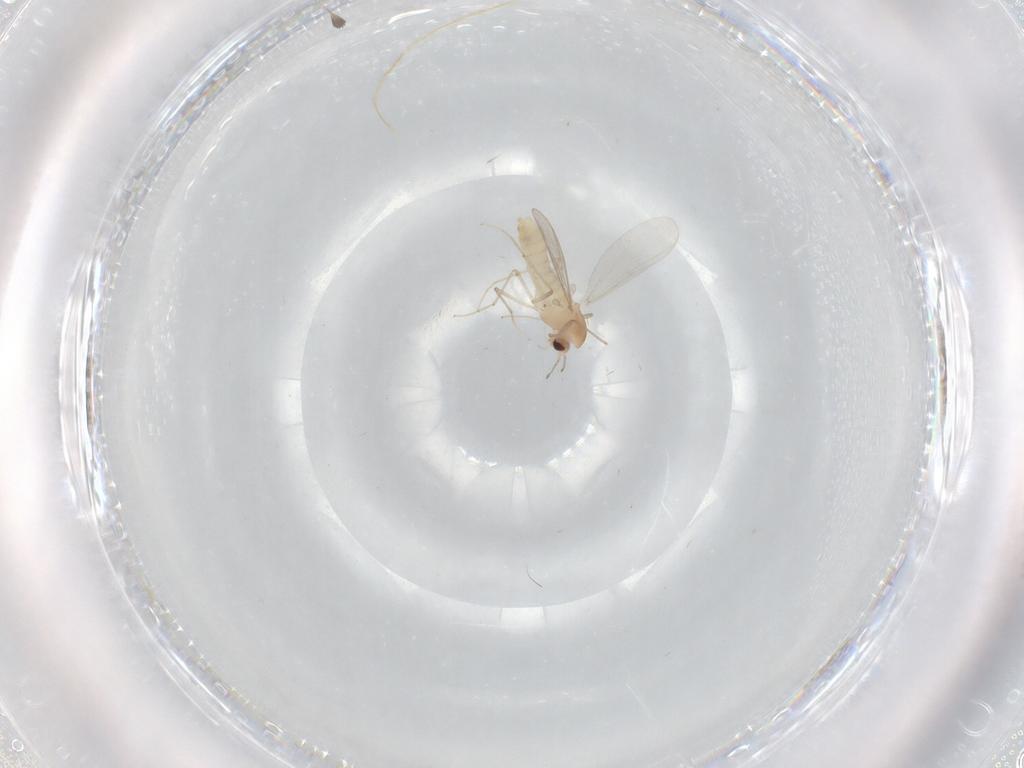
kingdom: Animalia
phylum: Arthropoda
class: Insecta
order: Diptera
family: Chironomidae
